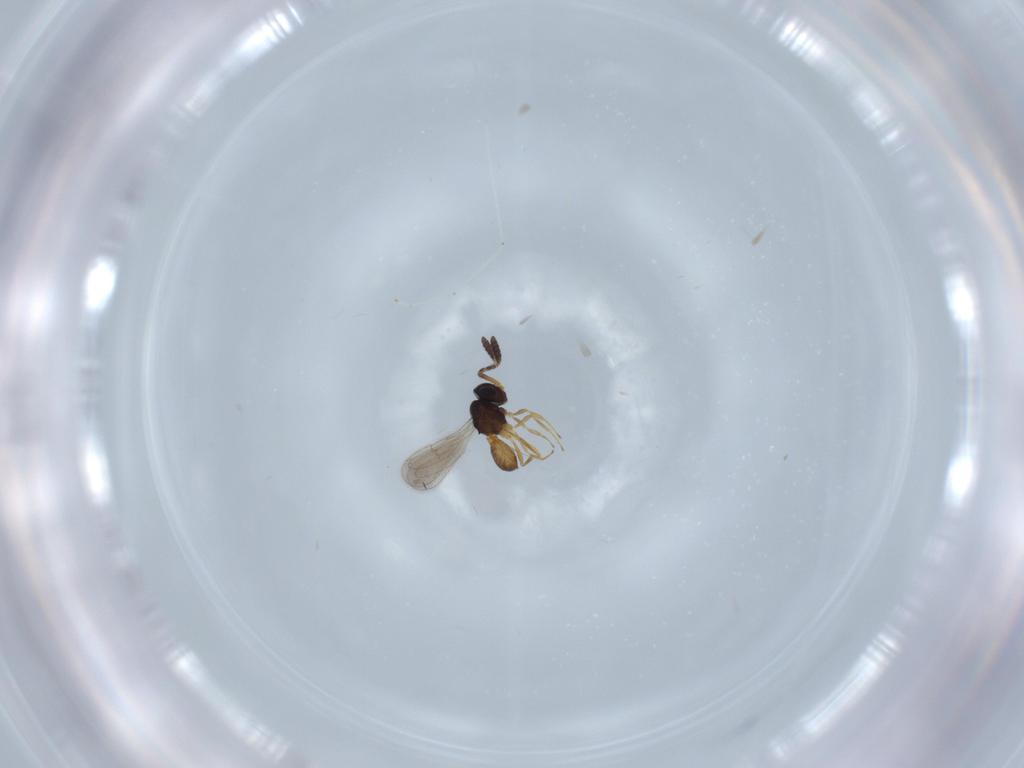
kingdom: Animalia
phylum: Arthropoda
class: Insecta
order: Hymenoptera
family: Scelionidae
